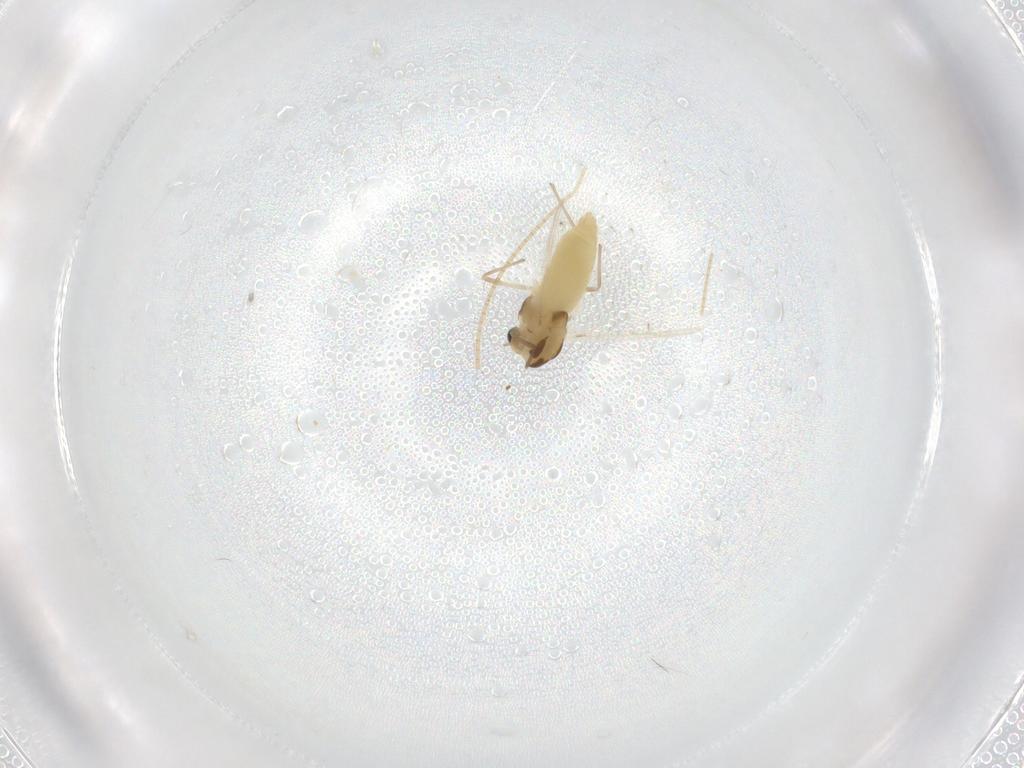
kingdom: Animalia
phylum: Arthropoda
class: Insecta
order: Diptera
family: Chironomidae
